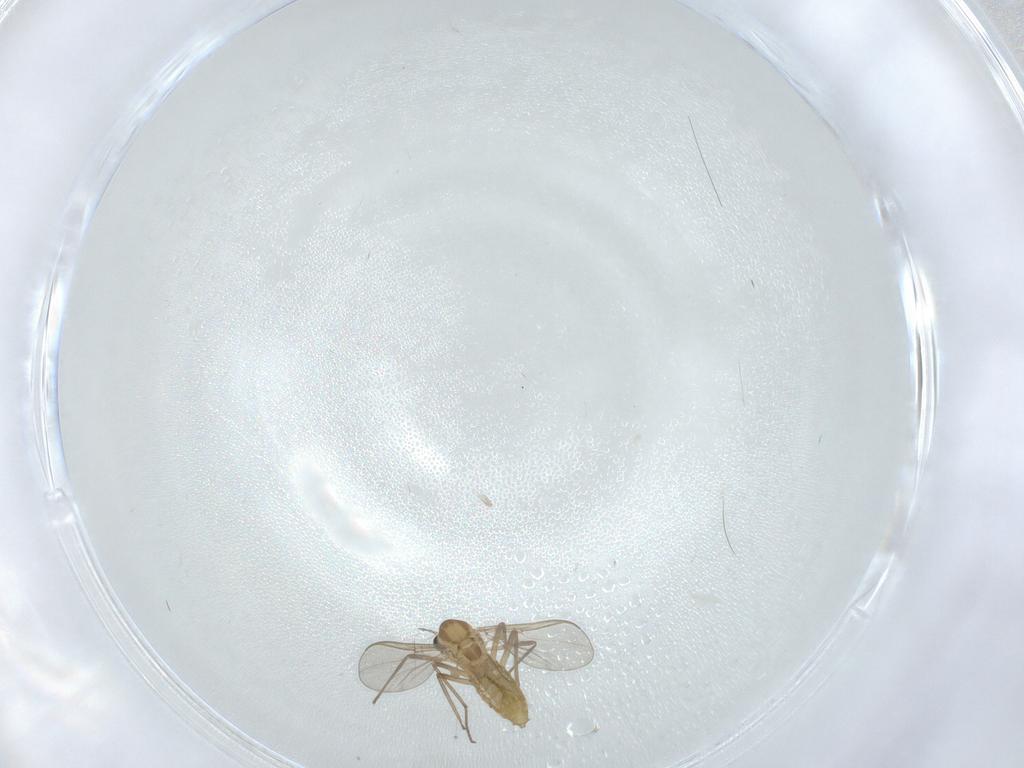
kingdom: Animalia
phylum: Arthropoda
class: Insecta
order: Diptera
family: Chironomidae
